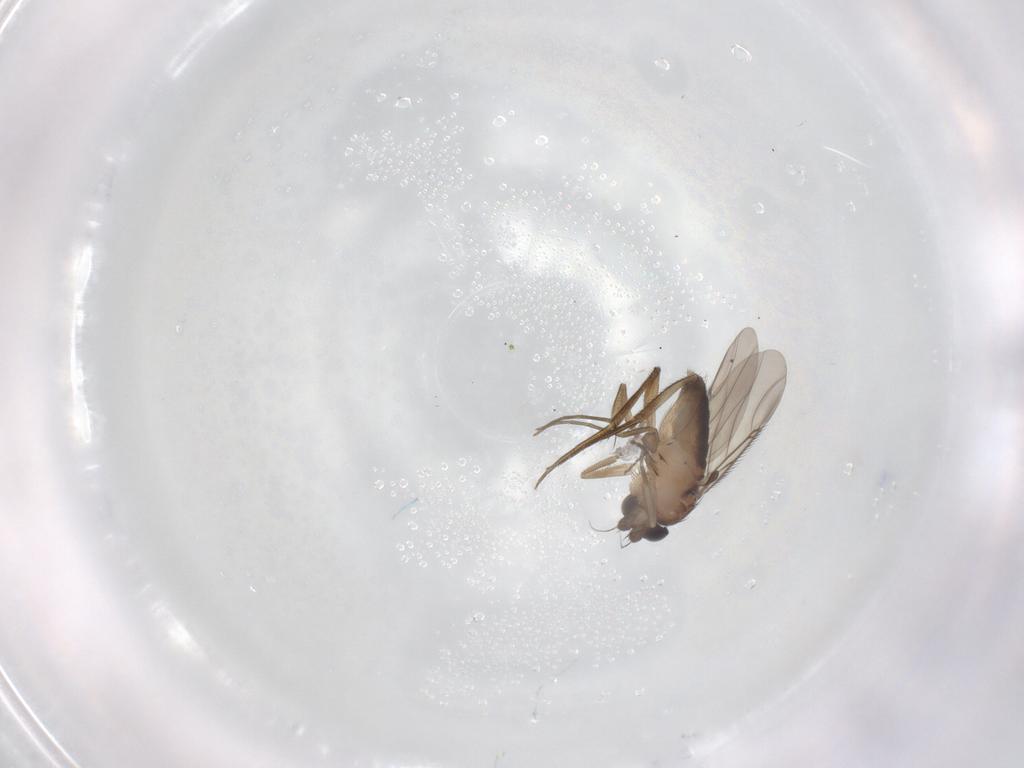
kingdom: Animalia
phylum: Arthropoda
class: Insecta
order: Diptera
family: Phoridae
